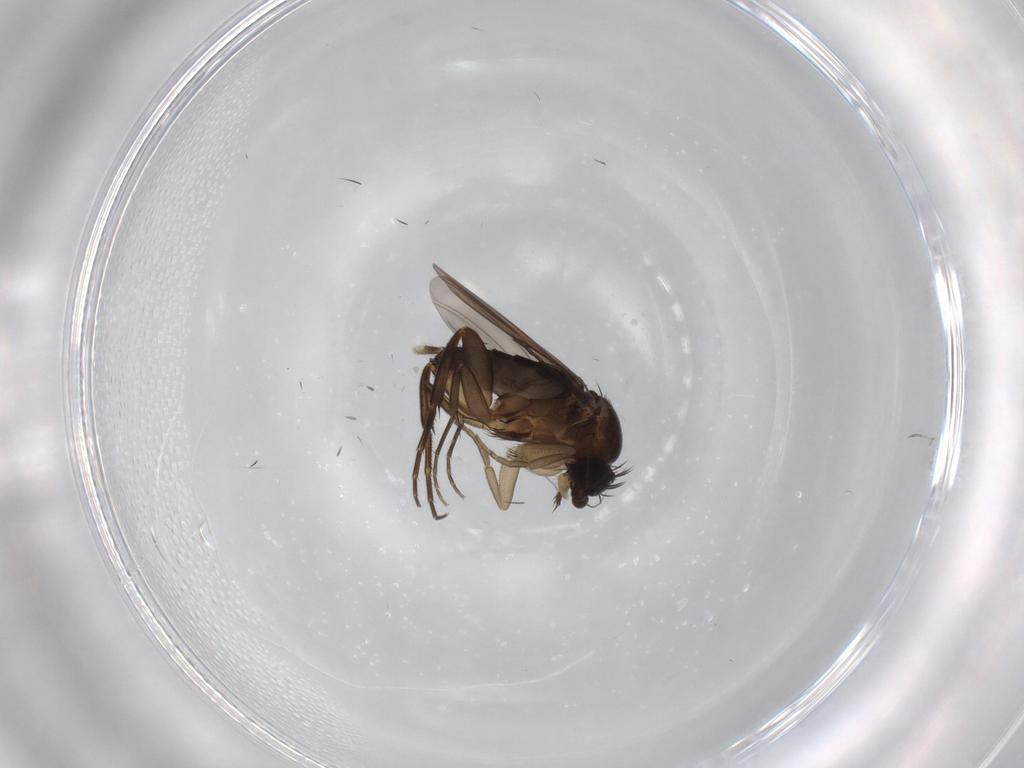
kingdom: Animalia
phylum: Arthropoda
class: Insecta
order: Diptera
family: Phoridae
